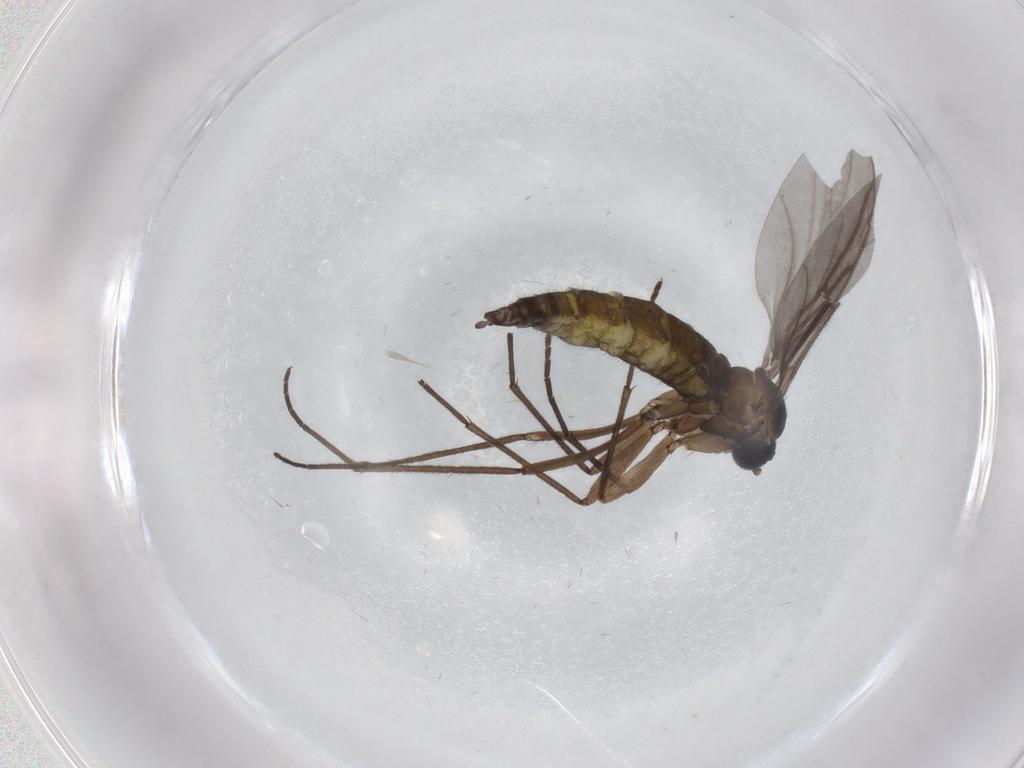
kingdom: Animalia
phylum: Arthropoda
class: Insecta
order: Diptera
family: Sciaridae
